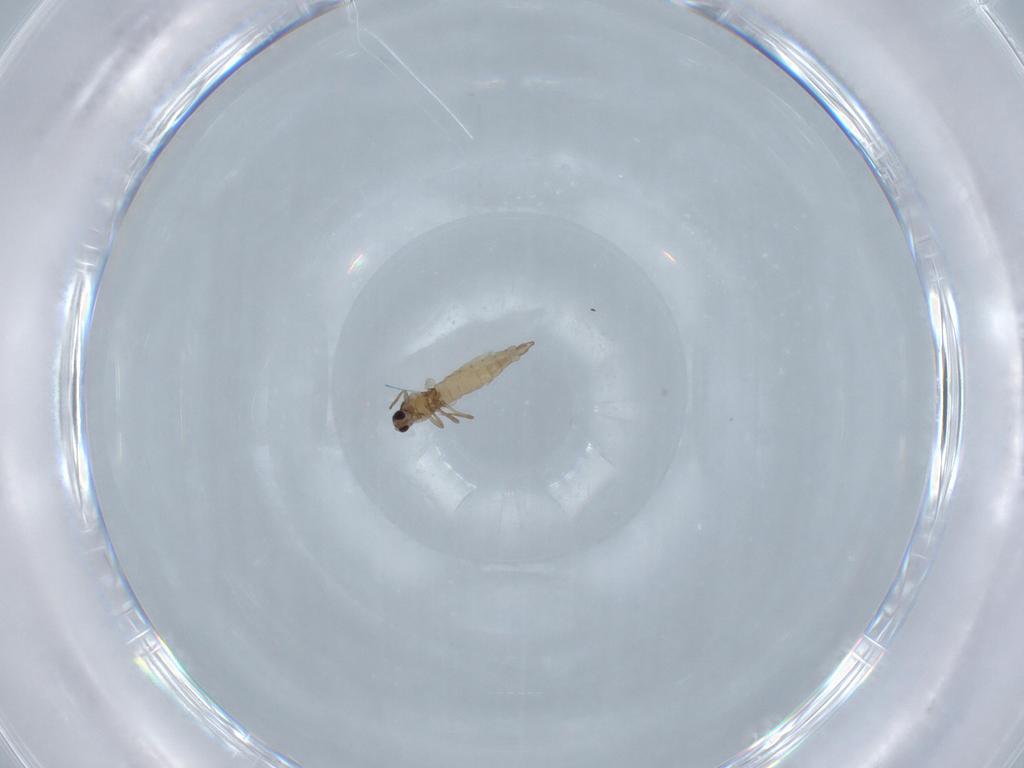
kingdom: Animalia
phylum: Arthropoda
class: Insecta
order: Diptera
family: Cecidomyiidae
